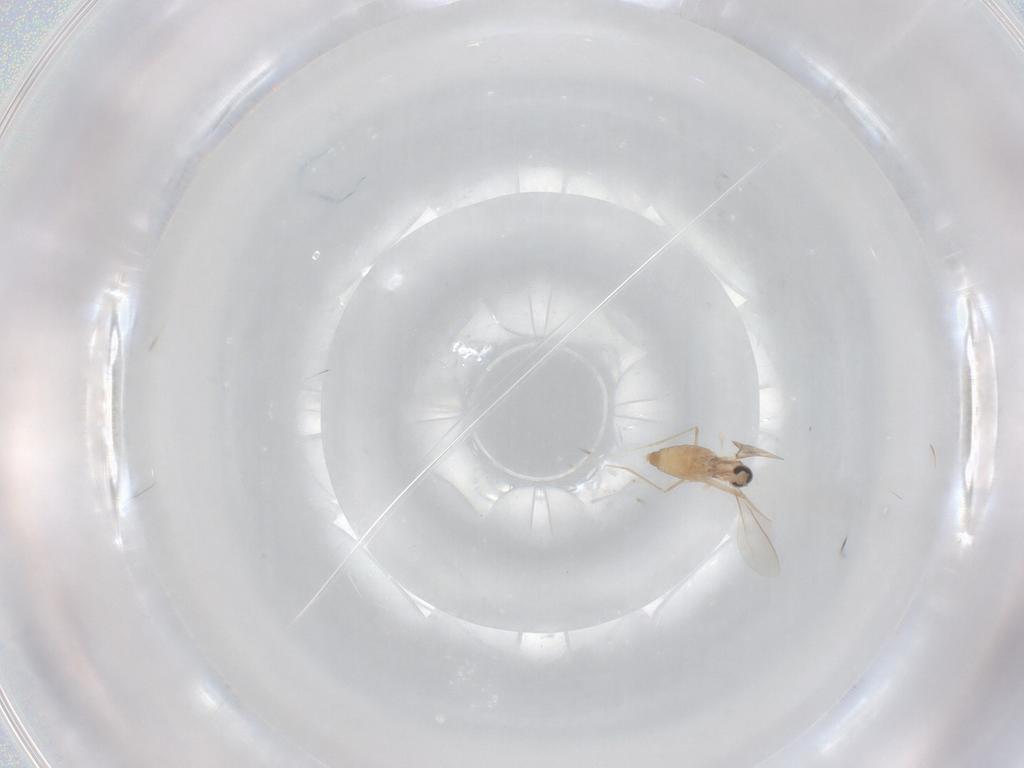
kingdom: Animalia
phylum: Arthropoda
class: Insecta
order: Diptera
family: Cecidomyiidae
